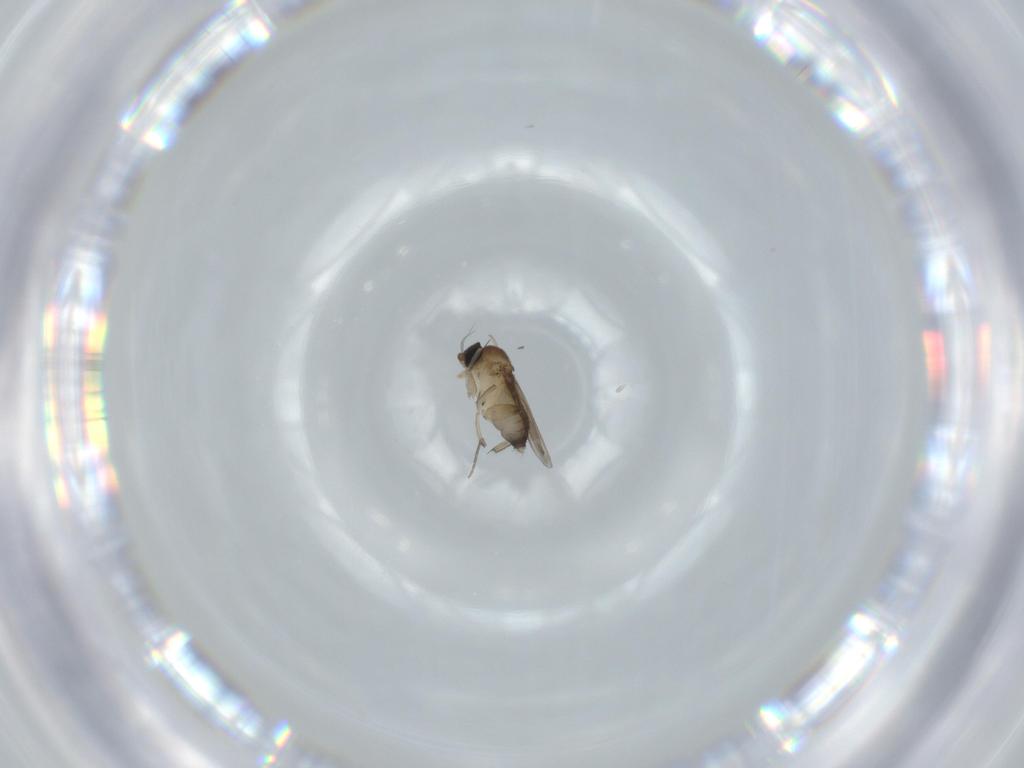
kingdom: Animalia
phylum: Arthropoda
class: Insecta
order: Diptera
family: Phoridae
